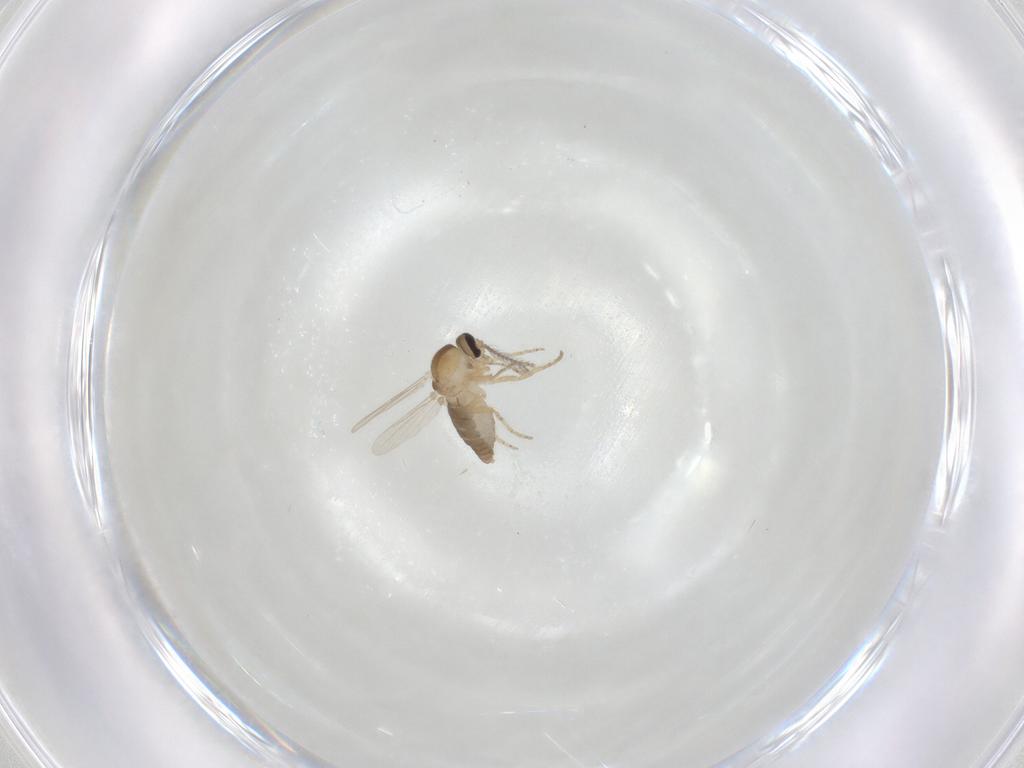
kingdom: Animalia
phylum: Arthropoda
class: Insecta
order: Diptera
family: Ceratopogonidae
